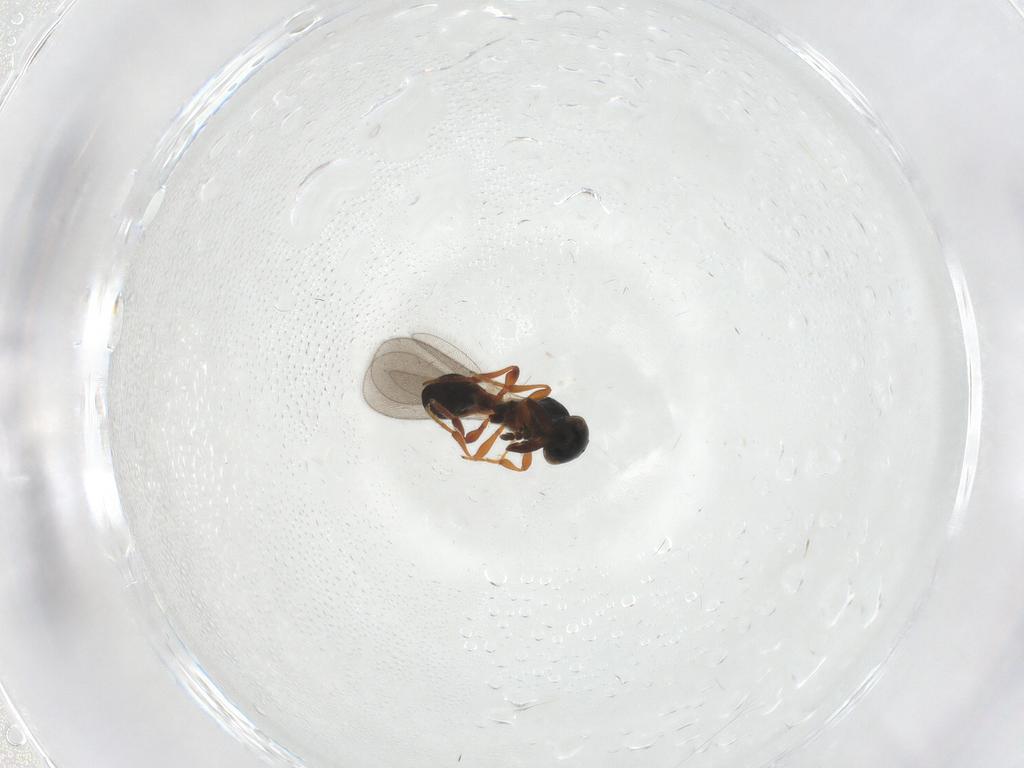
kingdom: Animalia
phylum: Arthropoda
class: Insecta
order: Hymenoptera
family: Platygastridae
